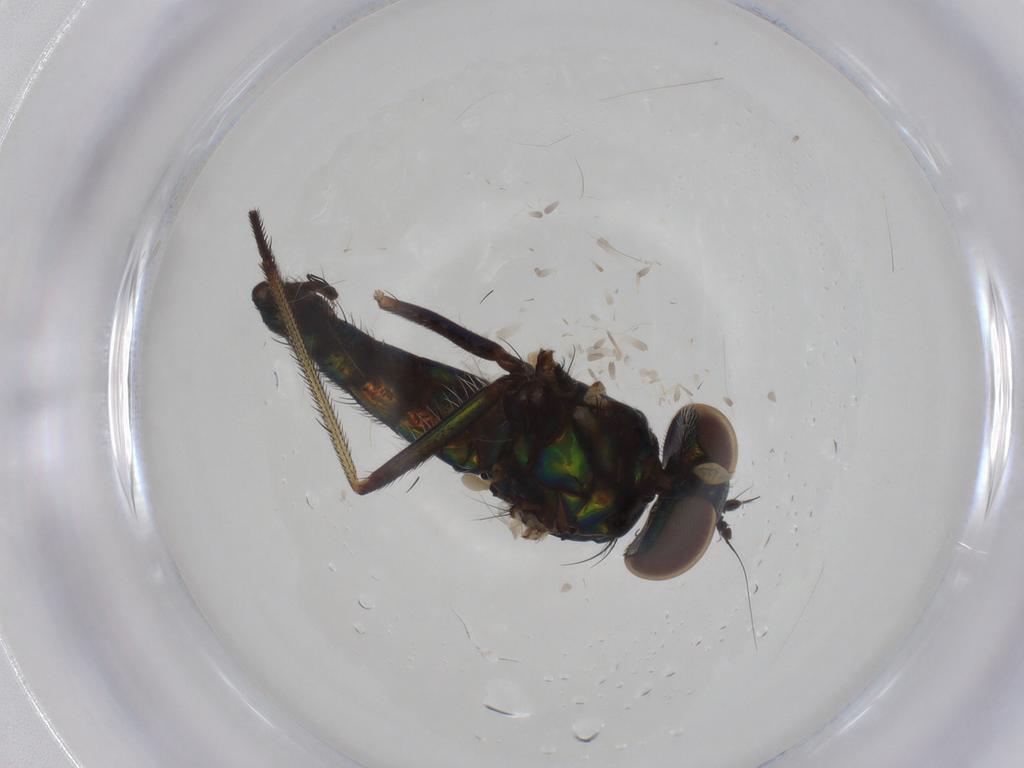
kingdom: Animalia
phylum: Arthropoda
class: Insecta
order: Diptera
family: Dolichopodidae
